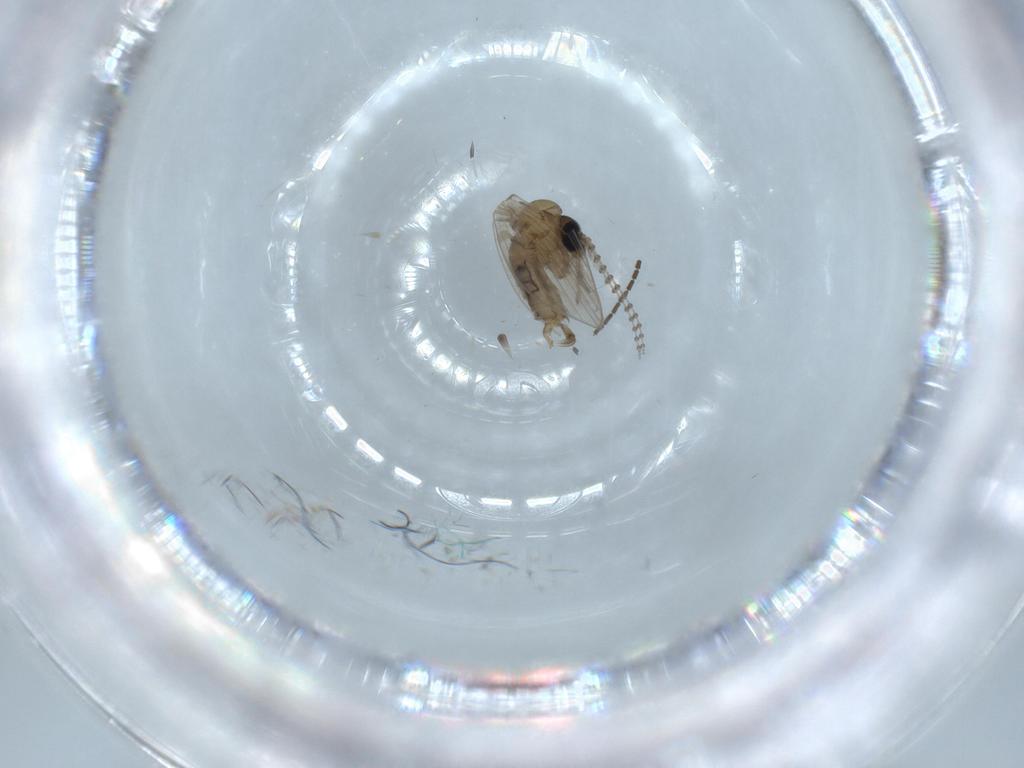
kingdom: Animalia
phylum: Arthropoda
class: Insecta
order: Diptera
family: Psychodidae
